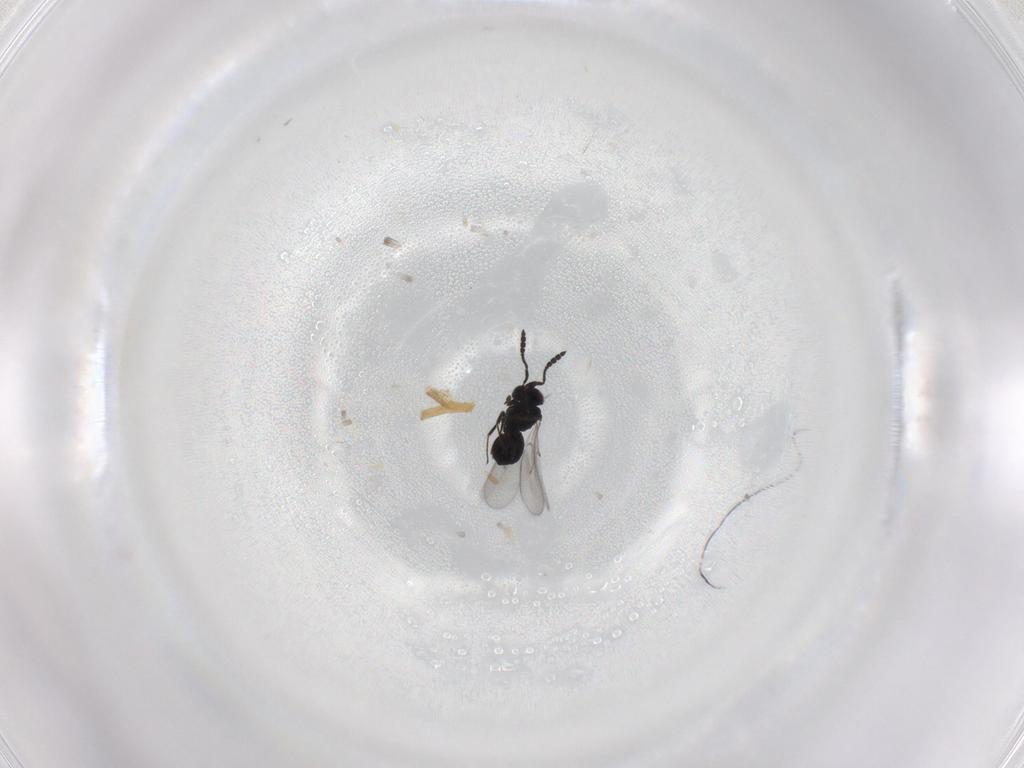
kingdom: Animalia
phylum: Arthropoda
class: Insecta
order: Hymenoptera
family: Scelionidae
